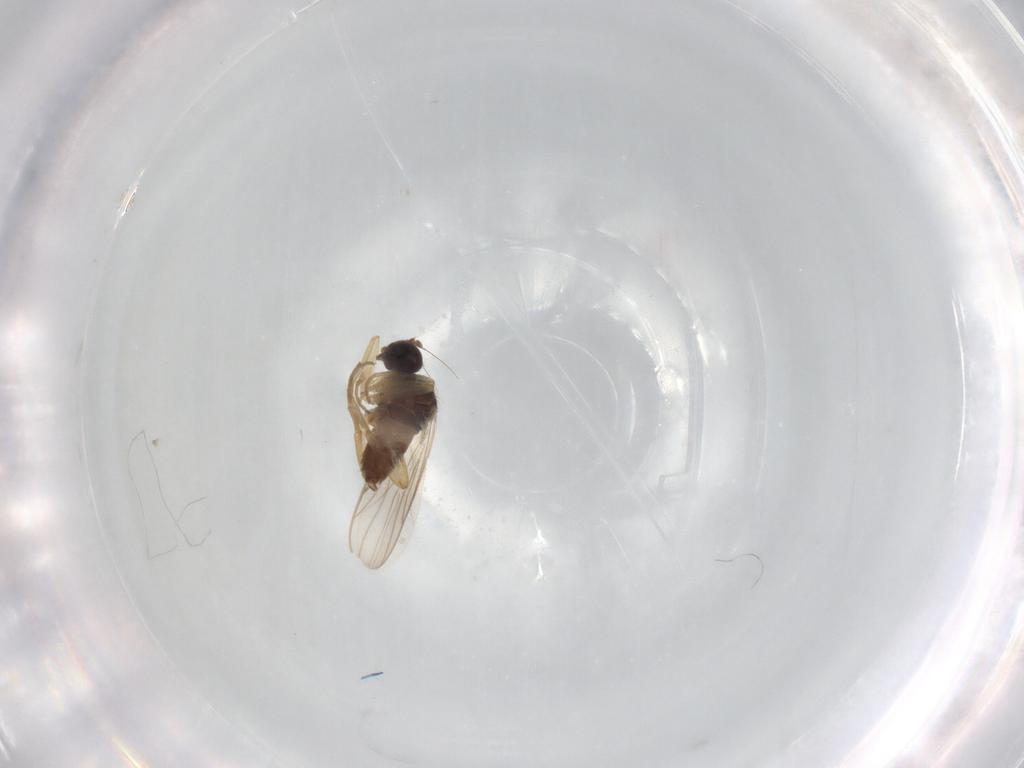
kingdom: Animalia
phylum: Arthropoda
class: Insecta
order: Diptera
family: Hybotidae
